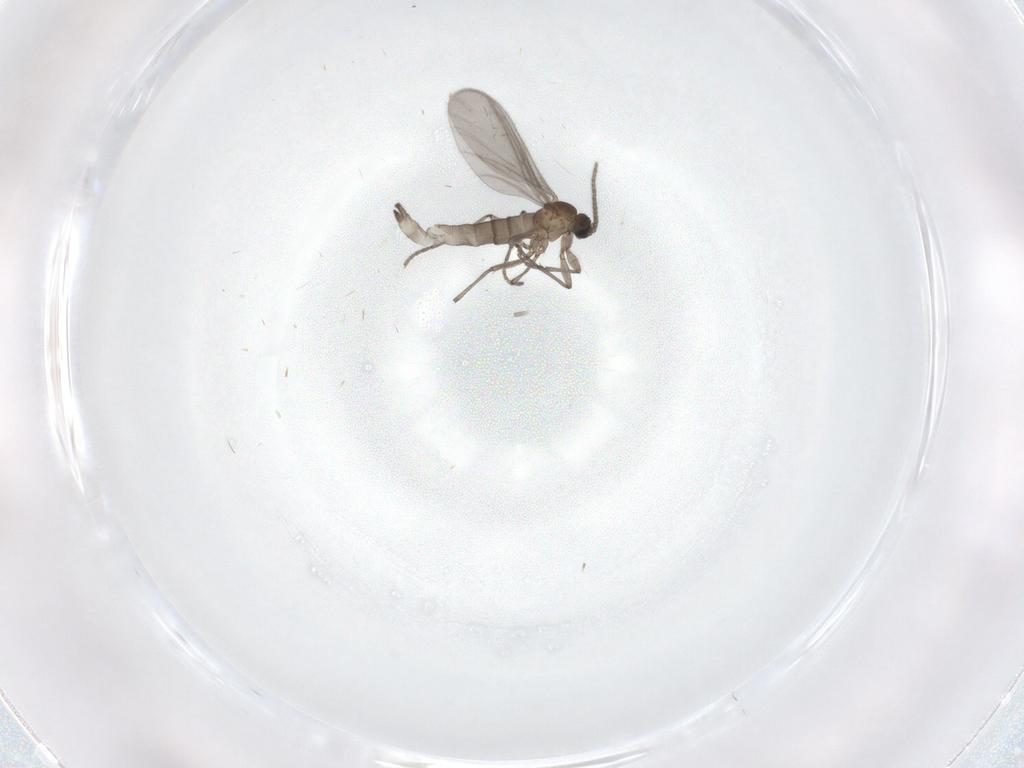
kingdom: Animalia
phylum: Arthropoda
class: Insecta
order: Diptera
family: Sciaridae
